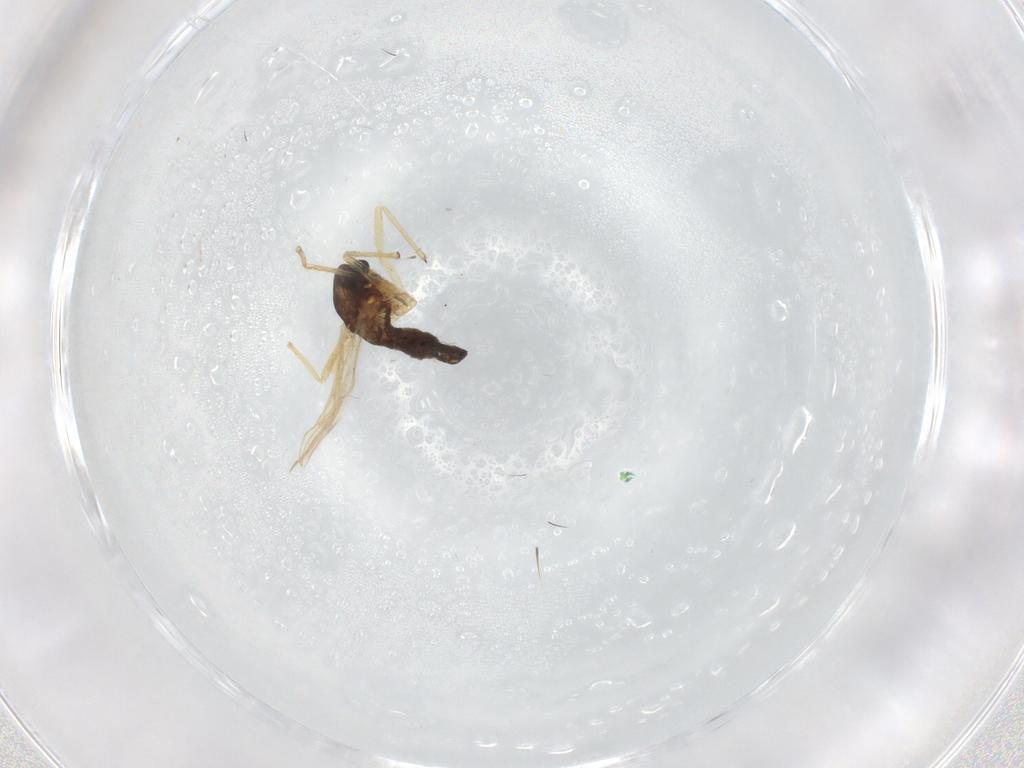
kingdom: Animalia
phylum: Arthropoda
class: Insecta
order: Diptera
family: Chironomidae
